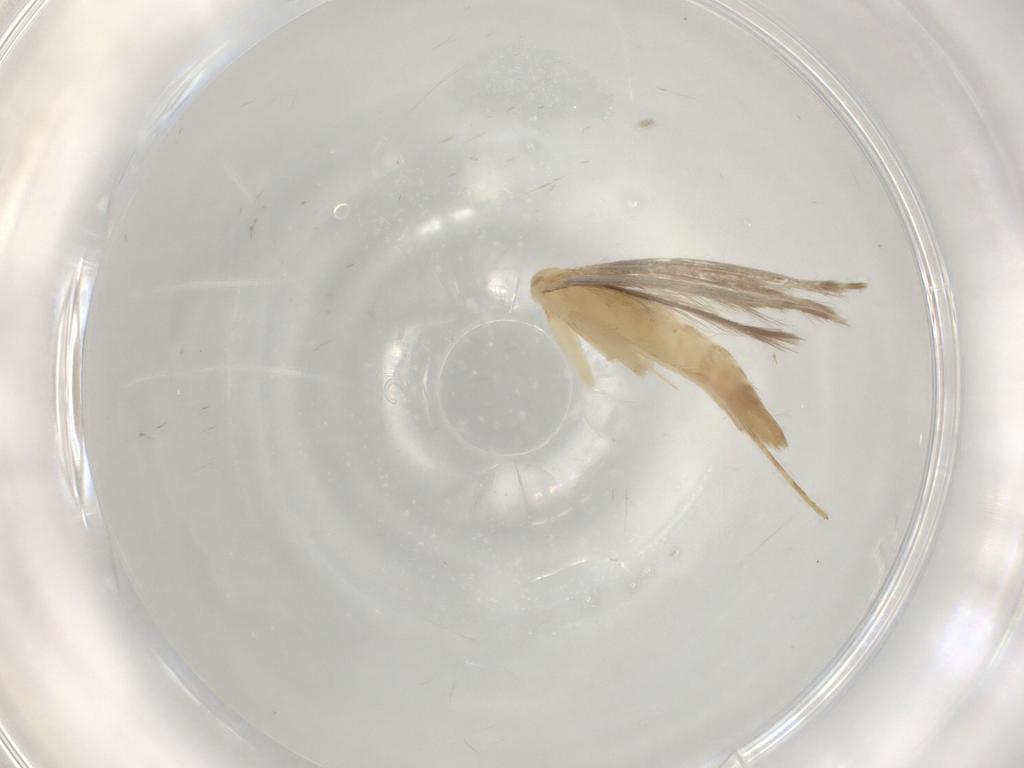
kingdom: Animalia
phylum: Arthropoda
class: Insecta
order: Lepidoptera
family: Gracillariidae
